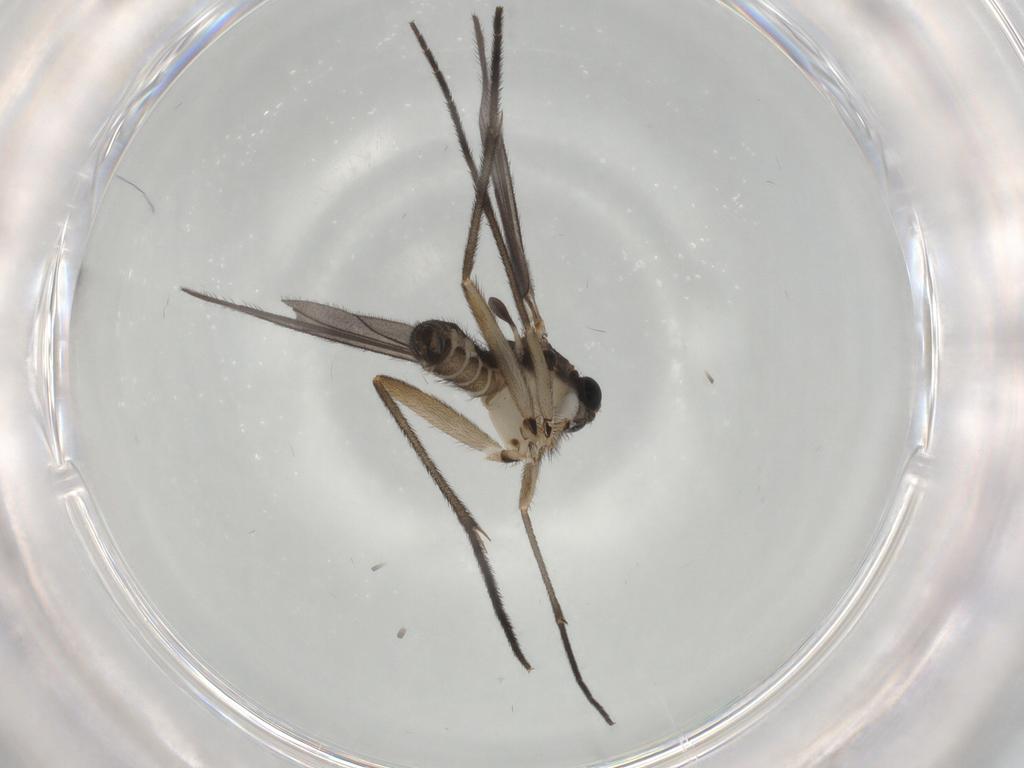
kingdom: Animalia
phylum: Arthropoda
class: Insecta
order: Diptera
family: Sciaridae
